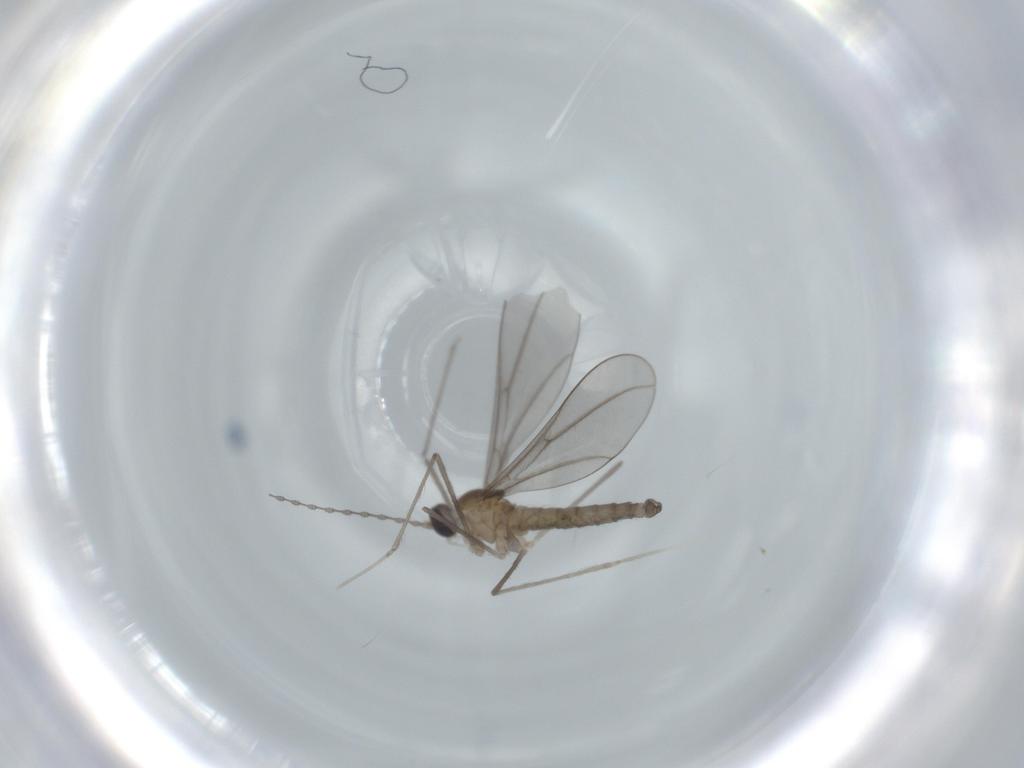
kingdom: Animalia
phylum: Arthropoda
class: Insecta
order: Diptera
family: Cecidomyiidae
